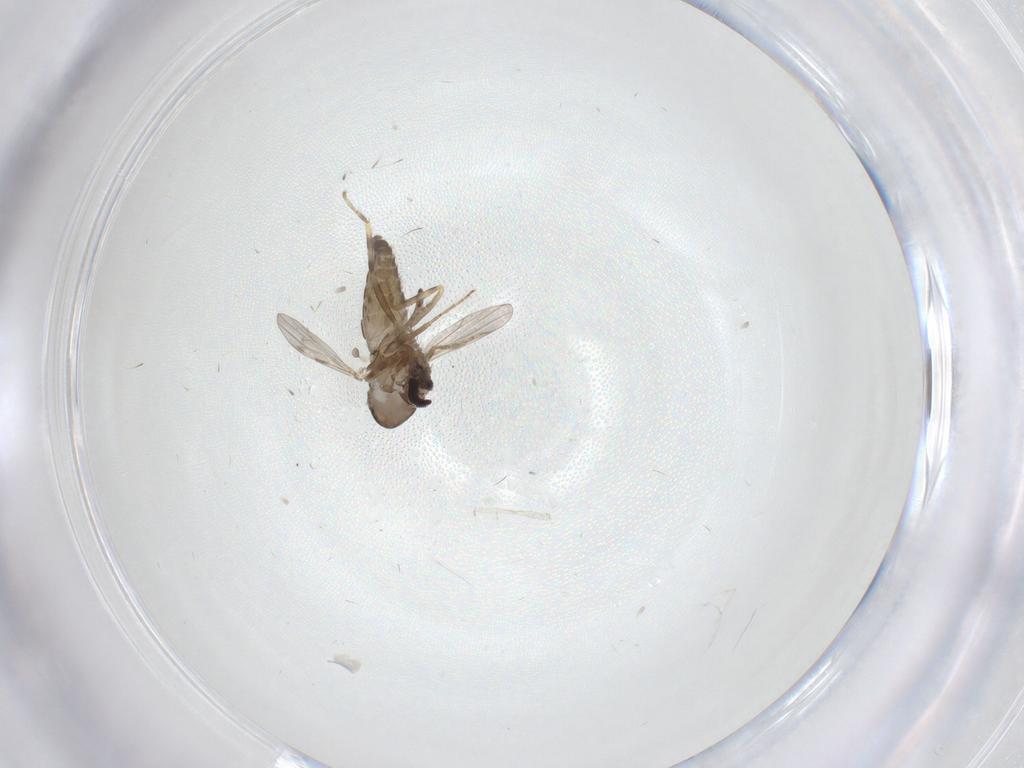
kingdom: Animalia
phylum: Arthropoda
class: Insecta
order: Diptera
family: Ceratopogonidae
